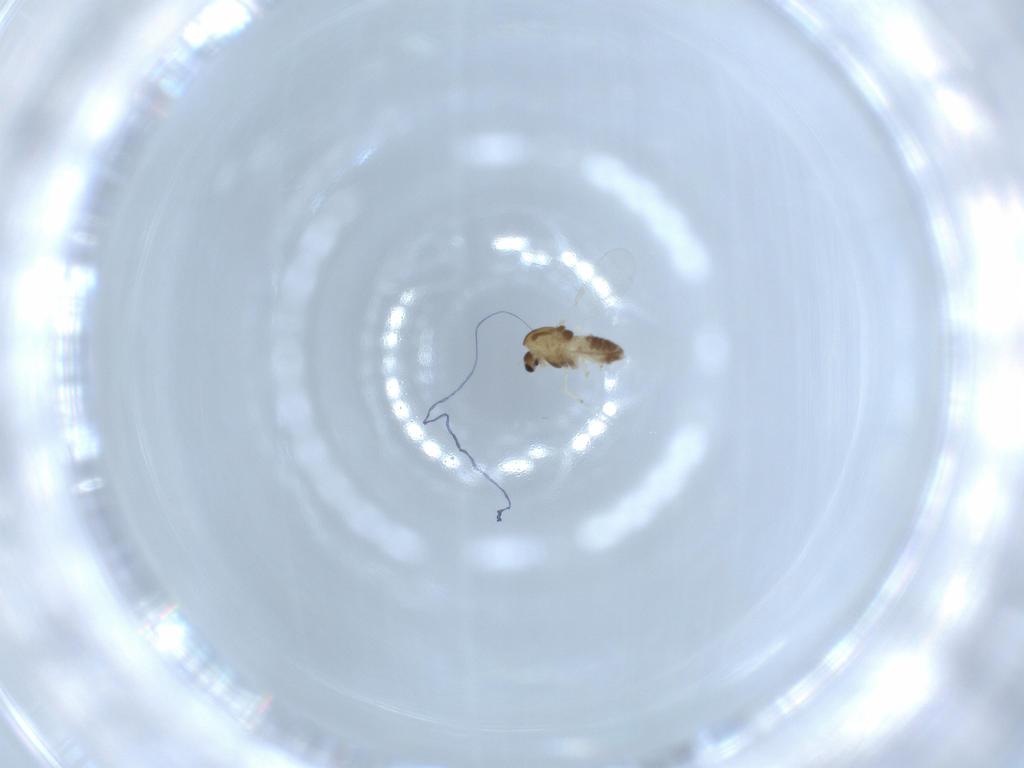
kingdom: Animalia
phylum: Arthropoda
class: Insecta
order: Diptera
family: Chironomidae
